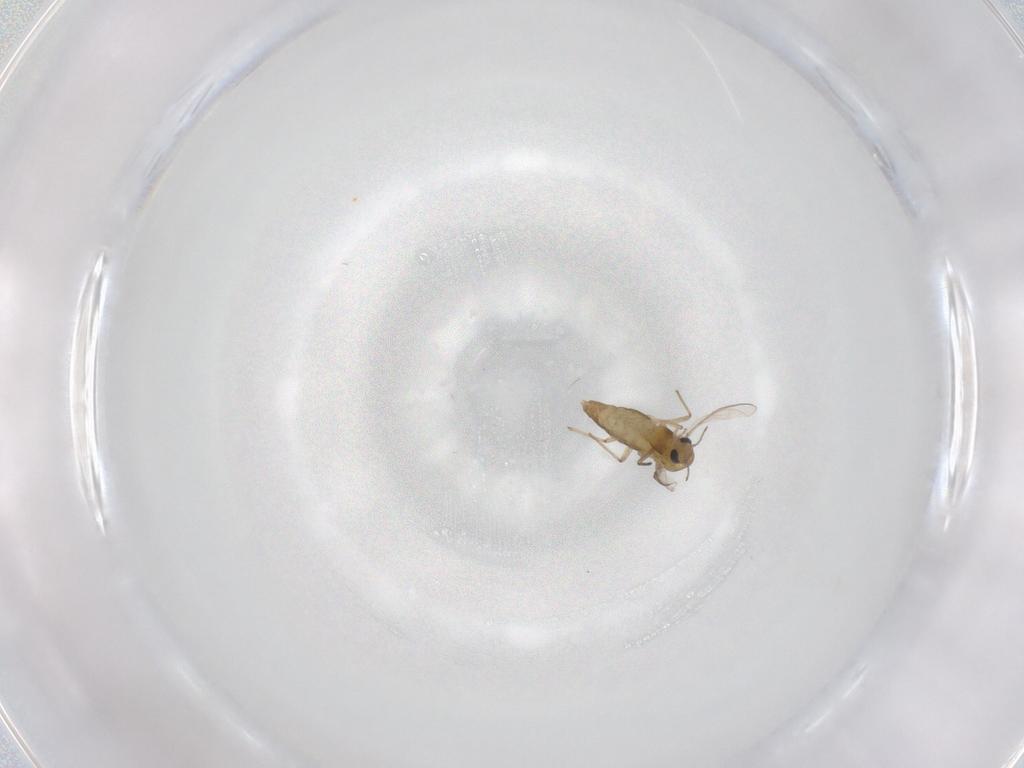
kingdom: Animalia
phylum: Arthropoda
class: Insecta
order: Diptera
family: Chironomidae
